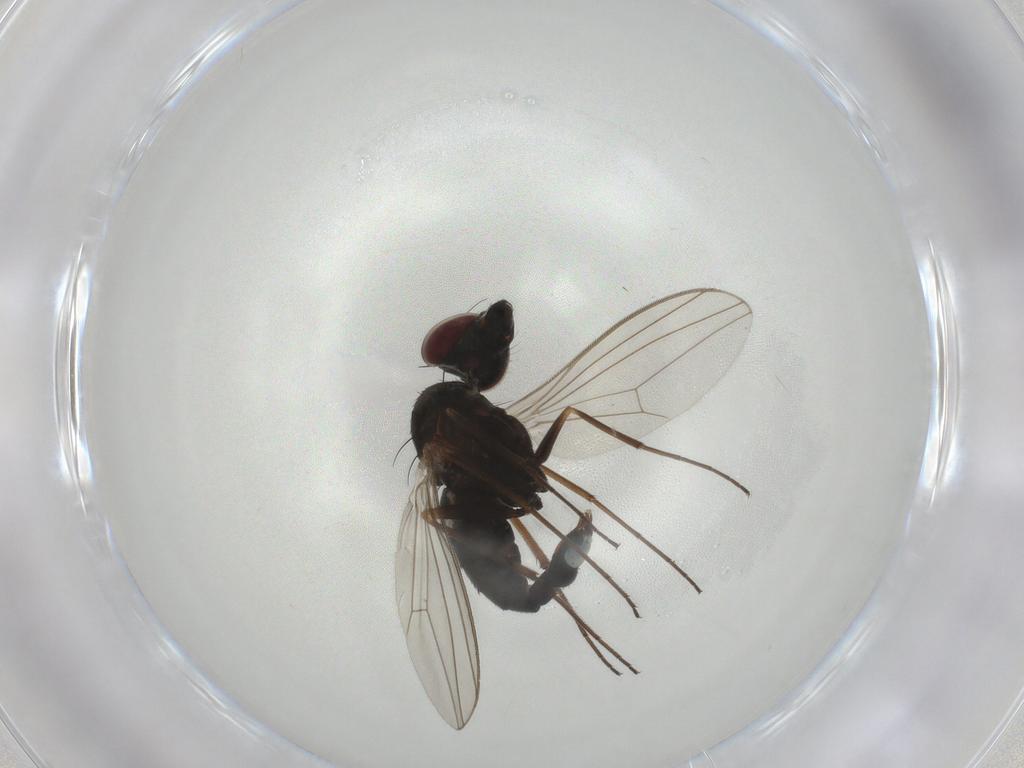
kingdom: Animalia
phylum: Arthropoda
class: Insecta
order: Diptera
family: Dolichopodidae
